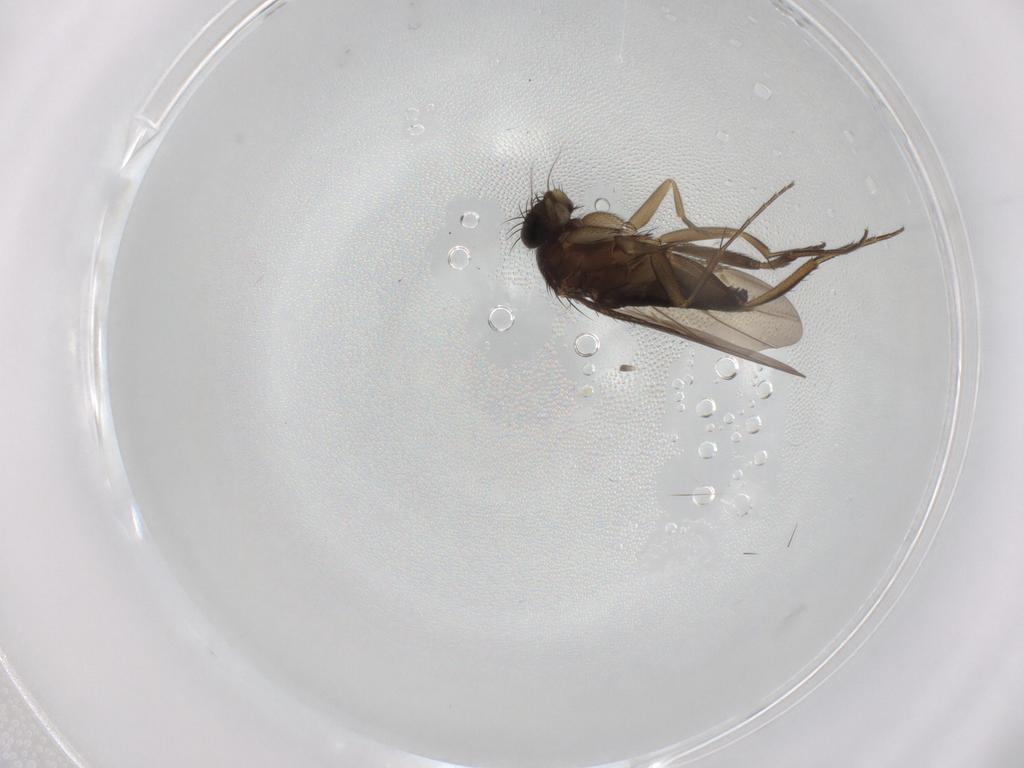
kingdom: Animalia
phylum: Arthropoda
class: Insecta
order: Diptera
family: Phoridae
